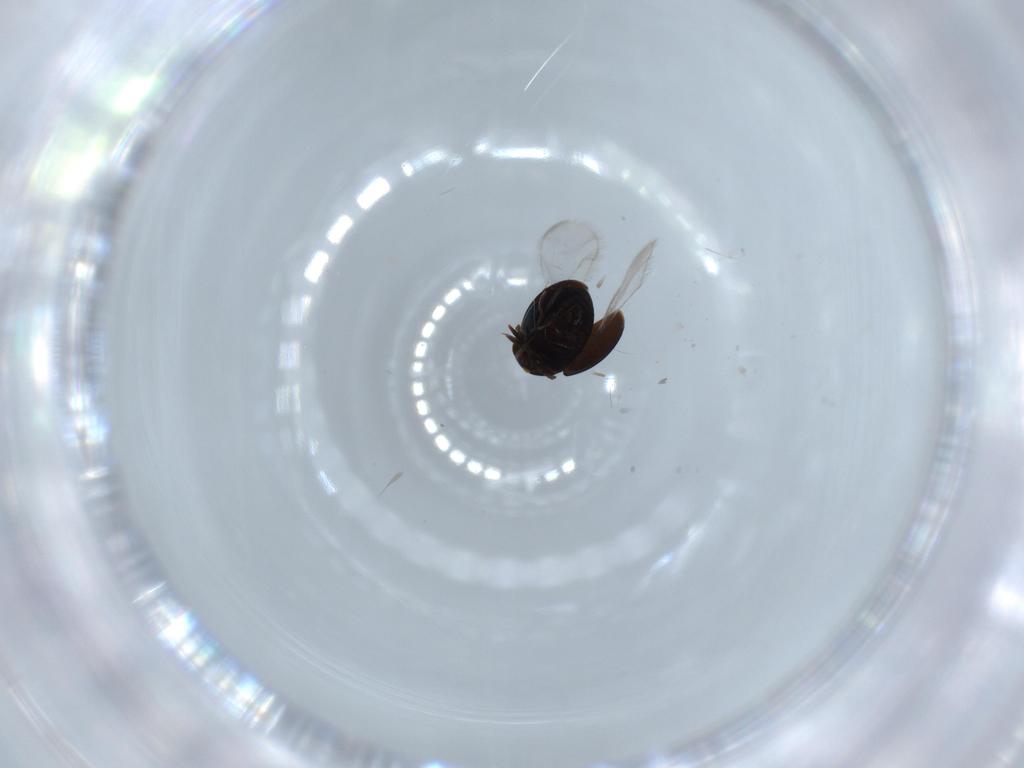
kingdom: Animalia
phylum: Arthropoda
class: Insecta
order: Coleoptera
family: Corylophidae
